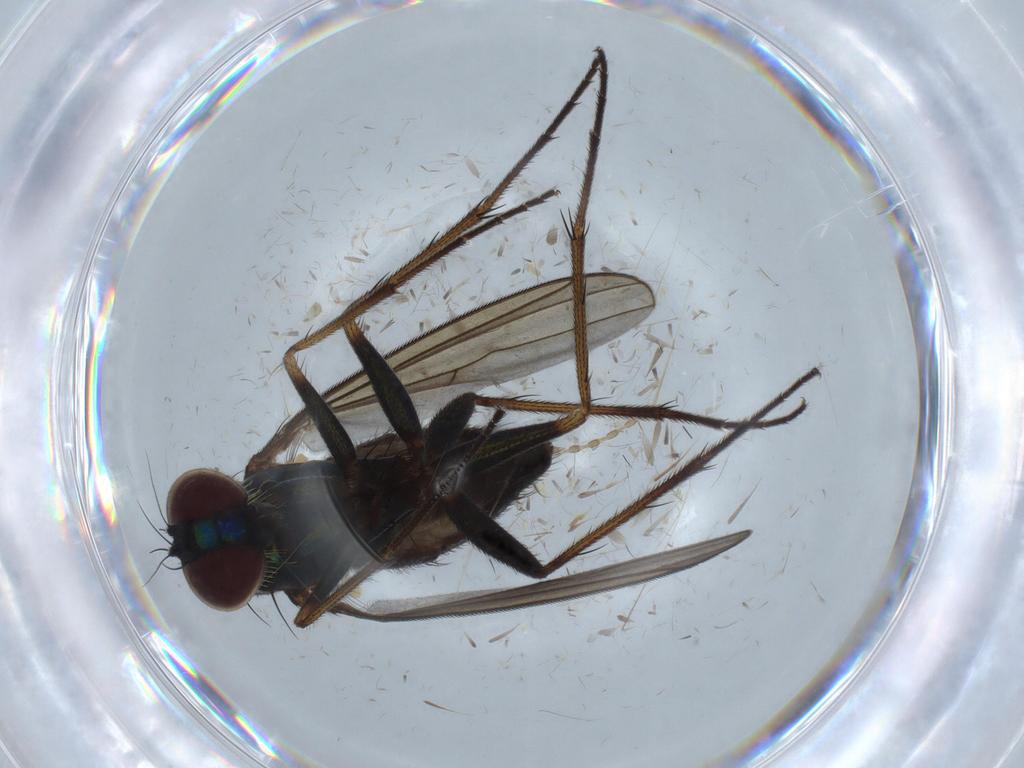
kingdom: Animalia
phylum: Arthropoda
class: Insecta
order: Diptera
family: Dolichopodidae
